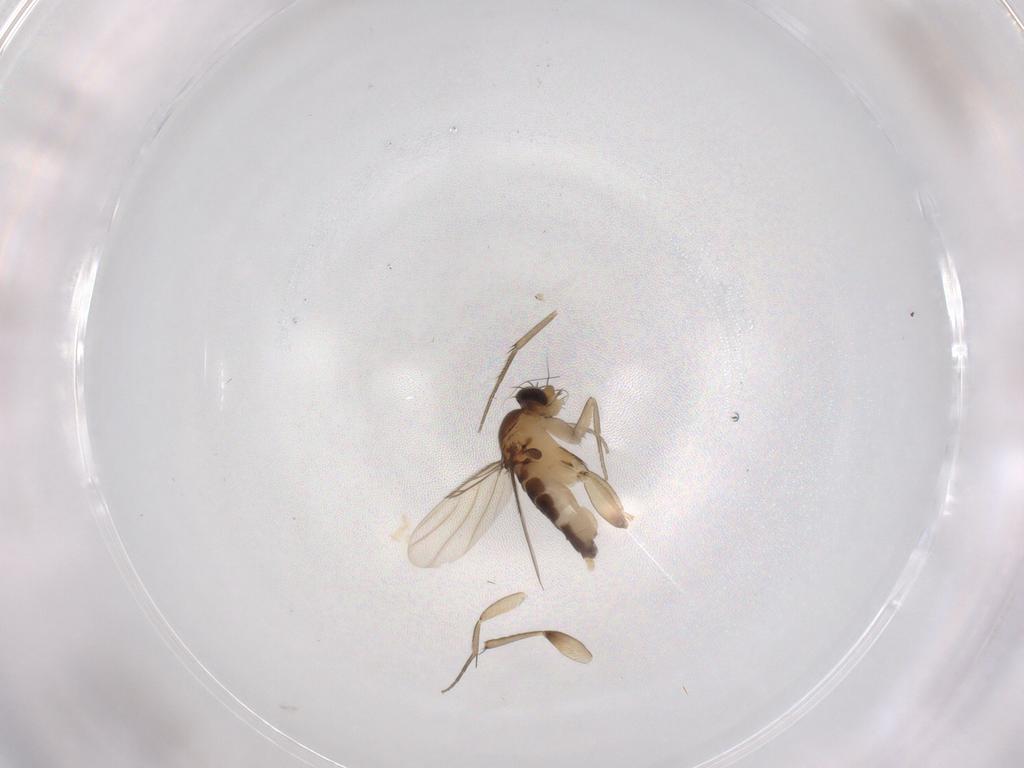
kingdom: Animalia
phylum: Arthropoda
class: Insecta
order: Diptera
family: Phoridae
